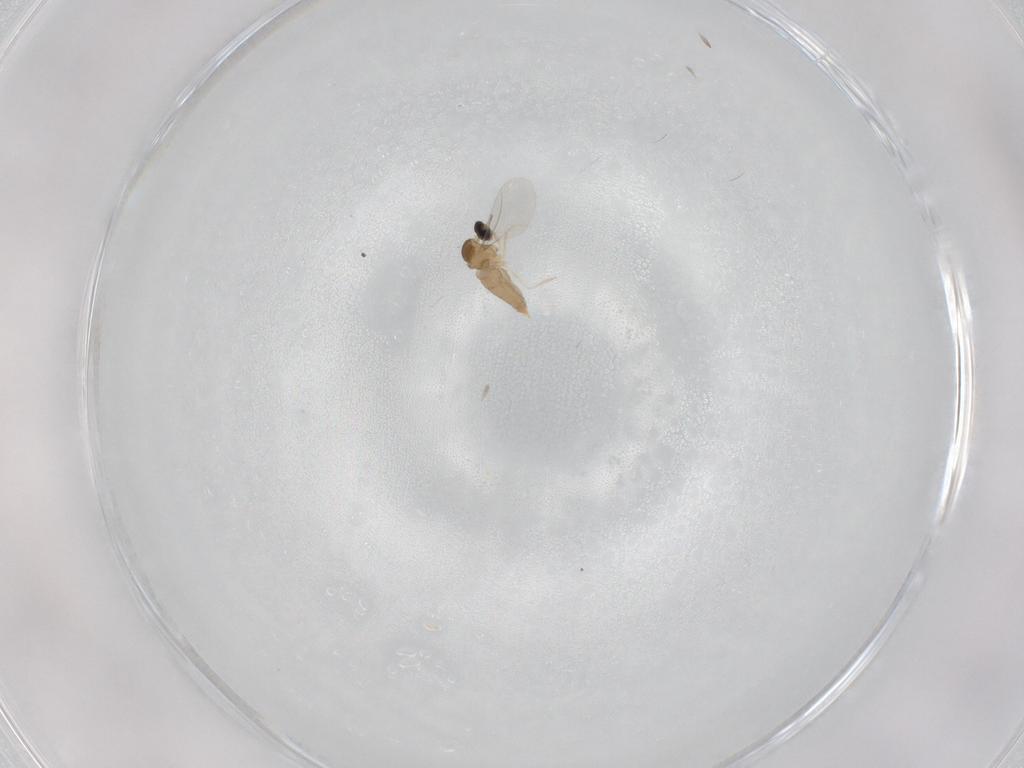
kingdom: Animalia
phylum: Arthropoda
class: Insecta
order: Diptera
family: Cecidomyiidae
